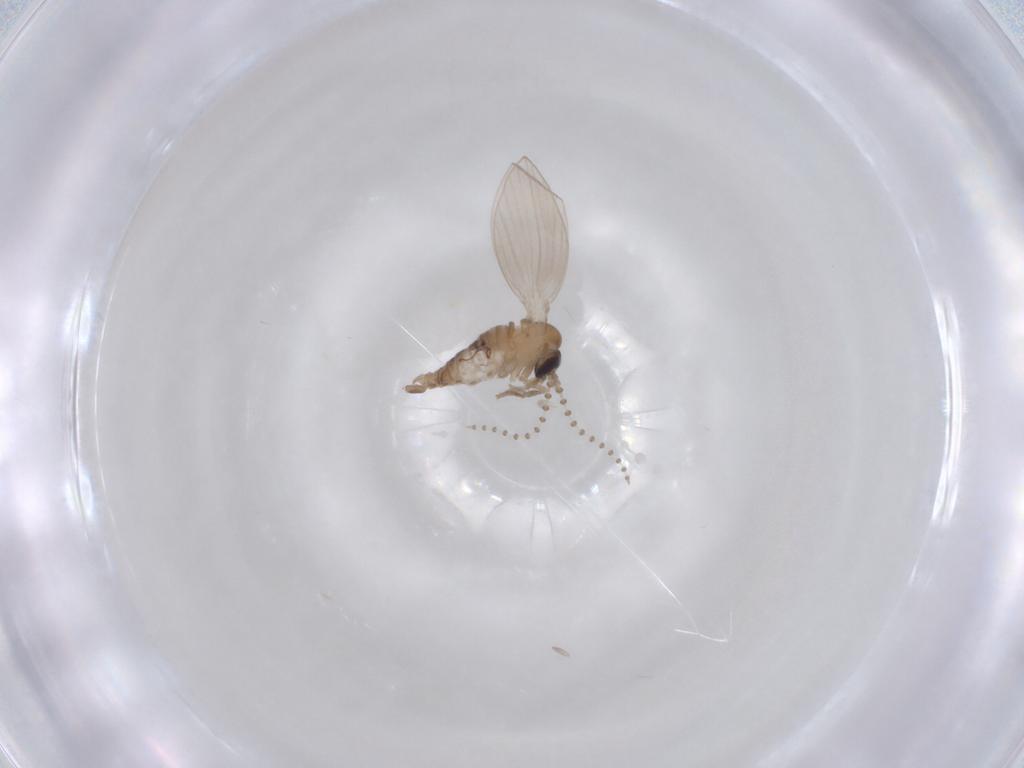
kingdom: Animalia
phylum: Arthropoda
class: Insecta
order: Diptera
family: Psychodidae
